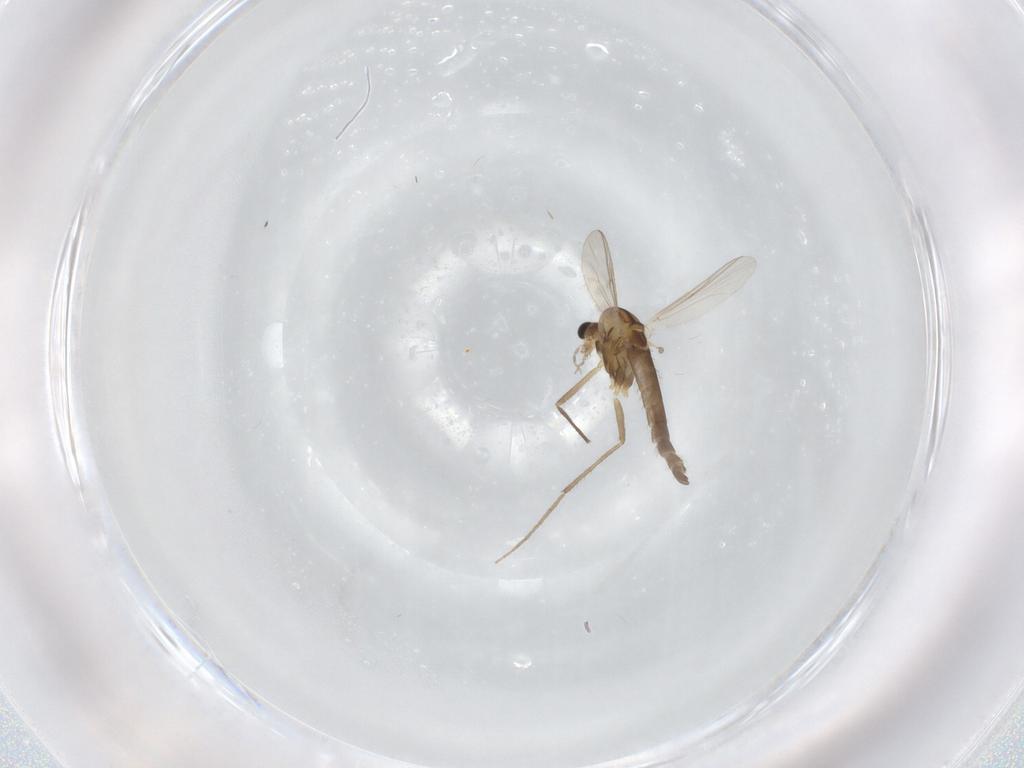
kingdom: Animalia
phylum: Arthropoda
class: Insecta
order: Diptera
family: Chironomidae
